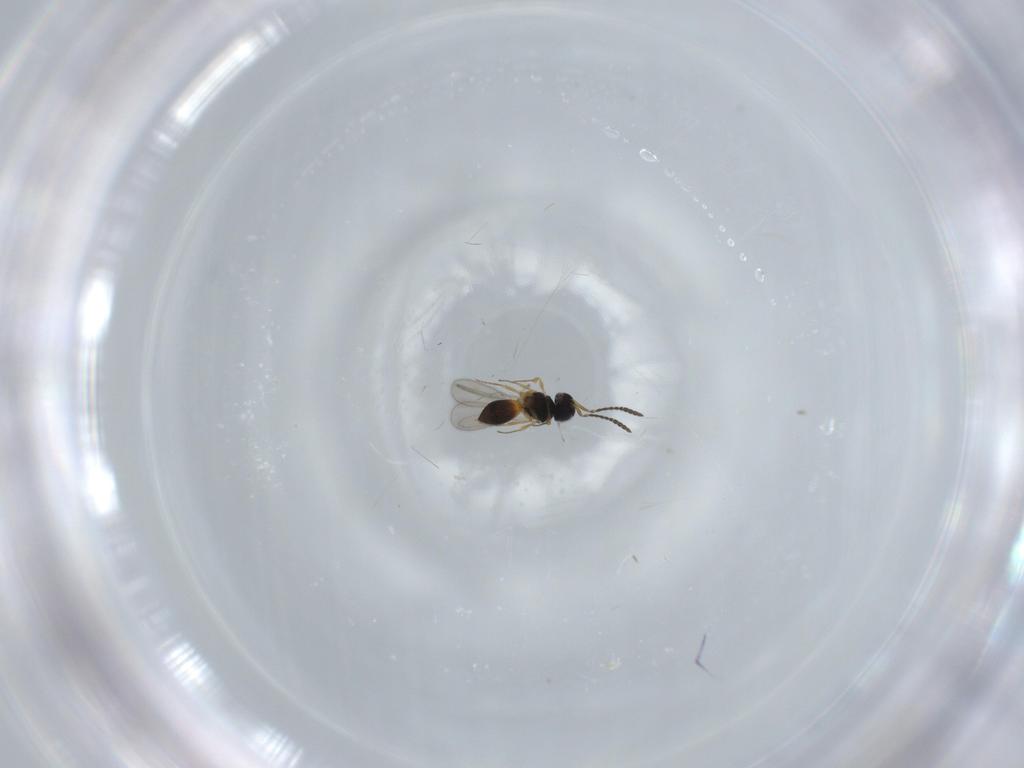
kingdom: Animalia
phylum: Arthropoda
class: Insecta
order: Hymenoptera
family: Scelionidae
